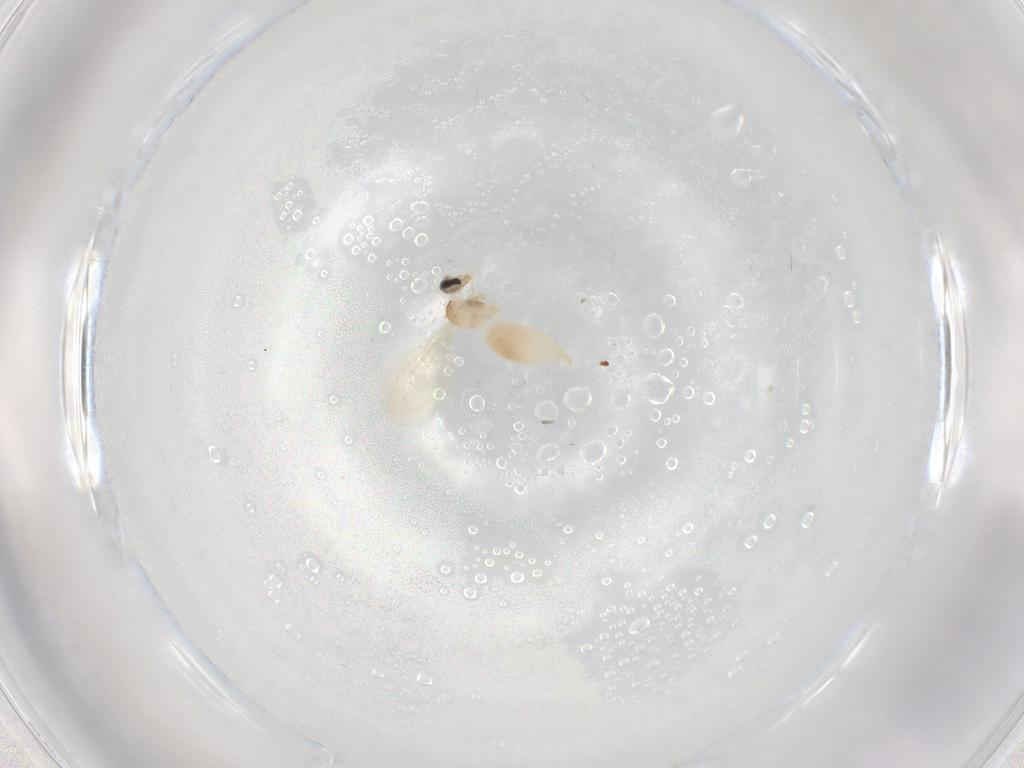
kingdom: Animalia
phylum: Arthropoda
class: Insecta
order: Diptera
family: Cecidomyiidae
